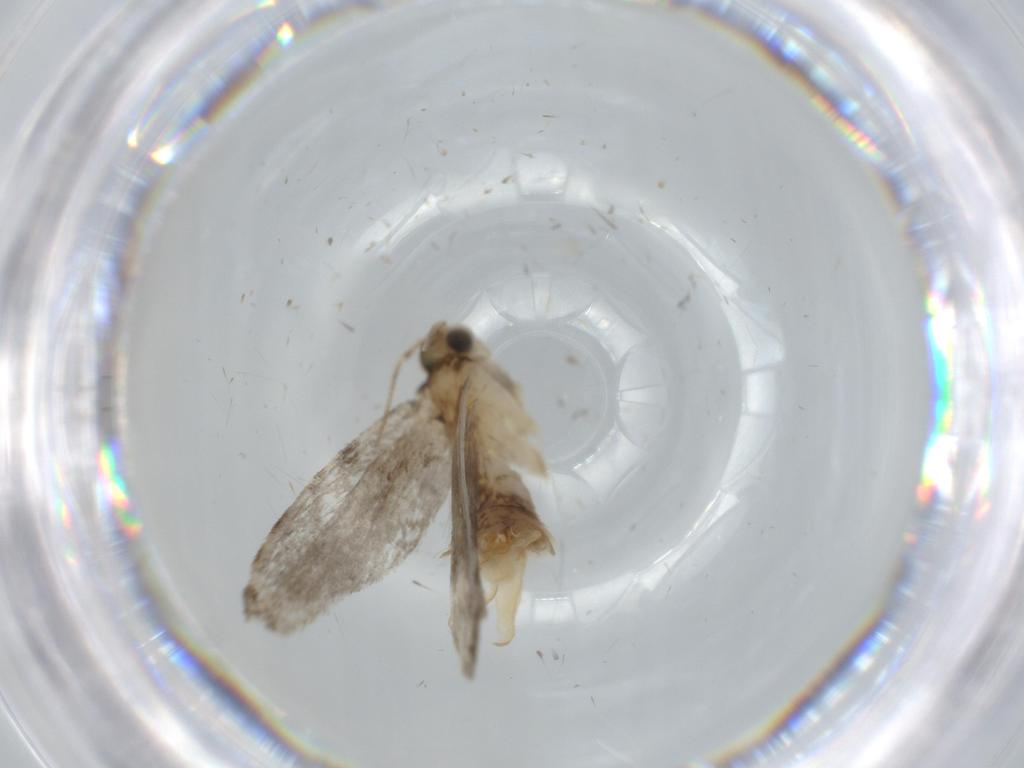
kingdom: Animalia
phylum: Arthropoda
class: Insecta
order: Lepidoptera
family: Tineidae
